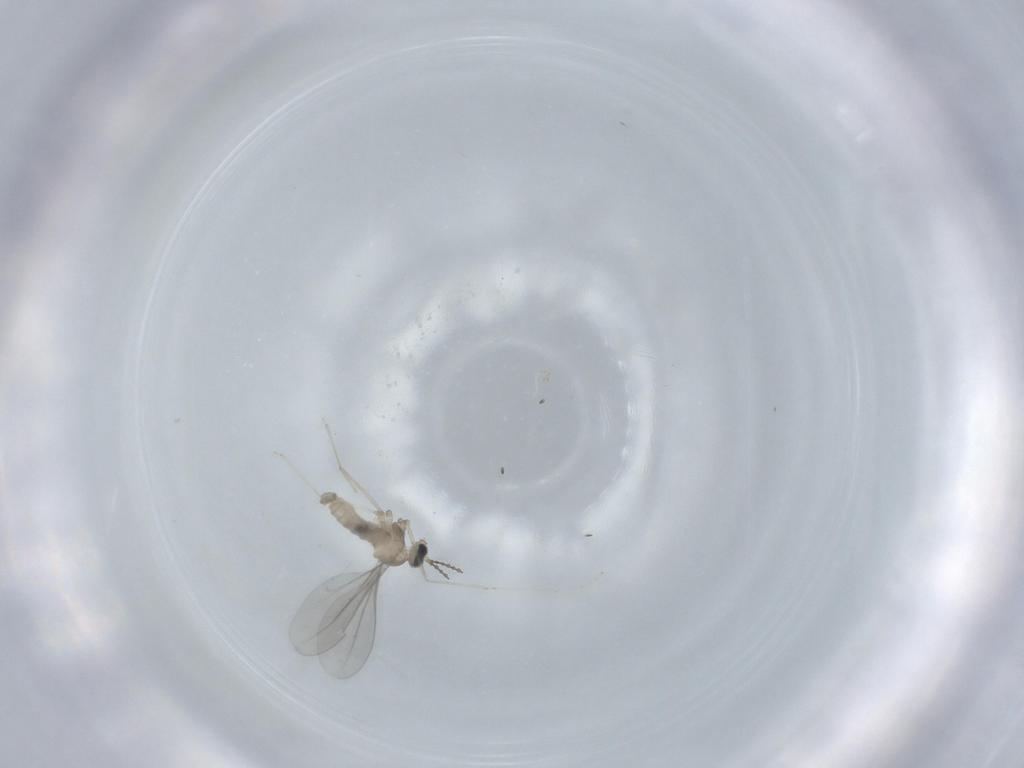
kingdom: Animalia
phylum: Arthropoda
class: Insecta
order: Diptera
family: Cecidomyiidae
